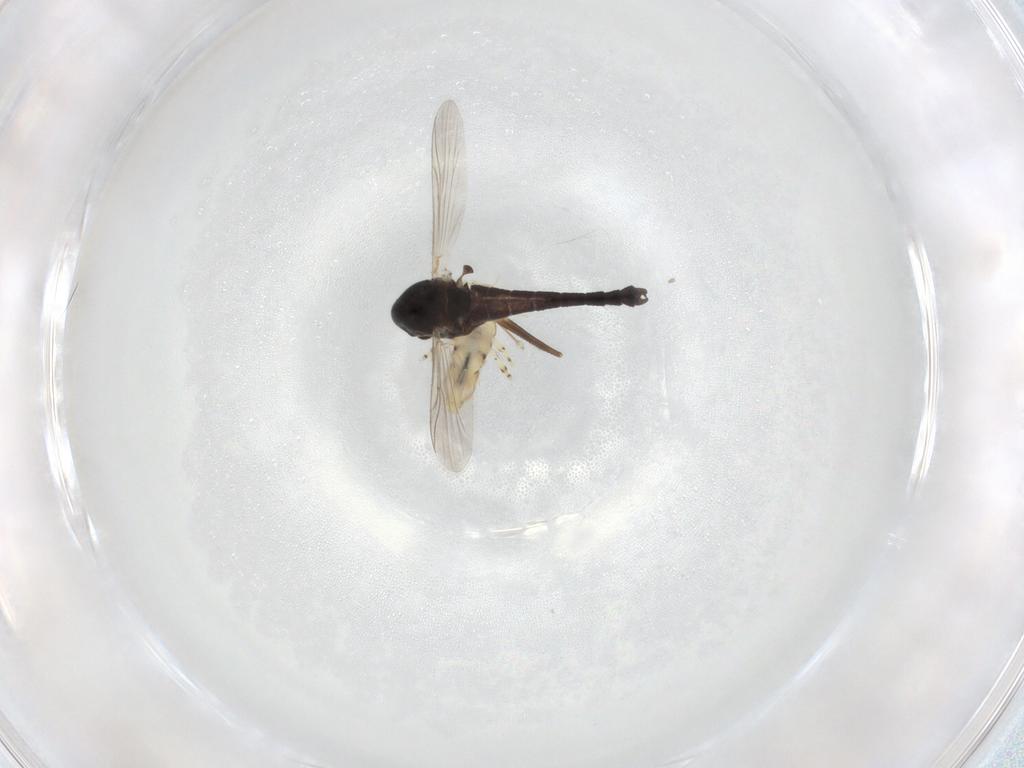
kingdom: Animalia
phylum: Arthropoda
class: Insecta
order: Diptera
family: Chironomidae
